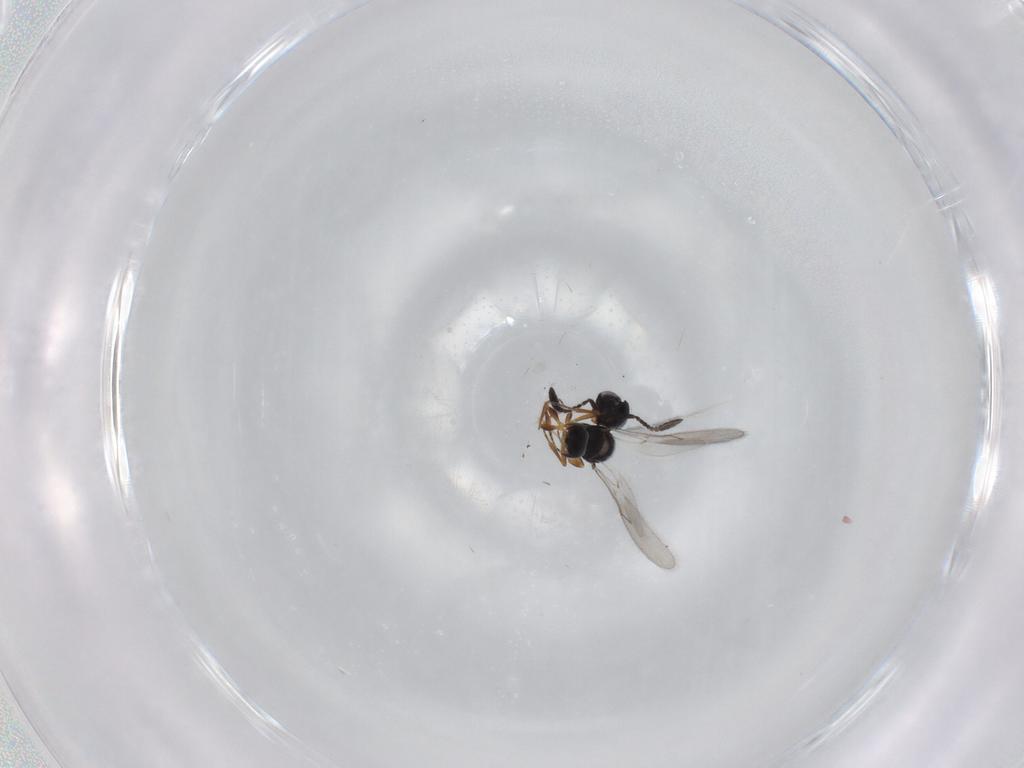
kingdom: Animalia
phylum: Arthropoda
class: Insecta
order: Hymenoptera
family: Scelionidae
